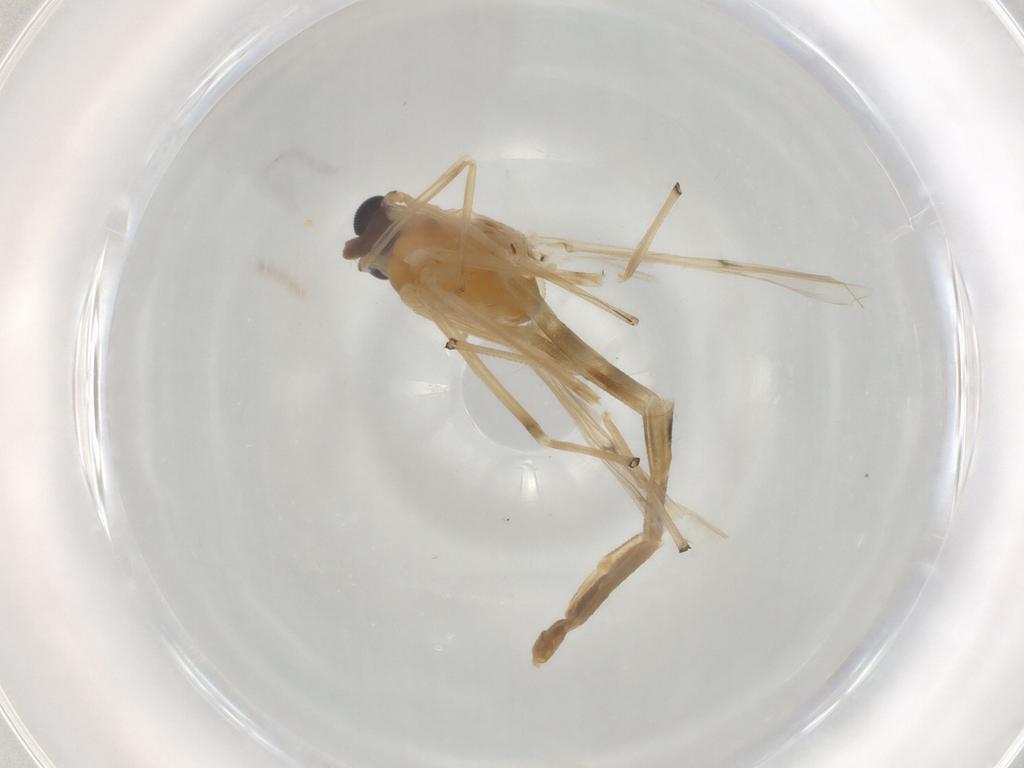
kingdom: Animalia
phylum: Arthropoda
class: Insecta
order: Diptera
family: Chironomidae
